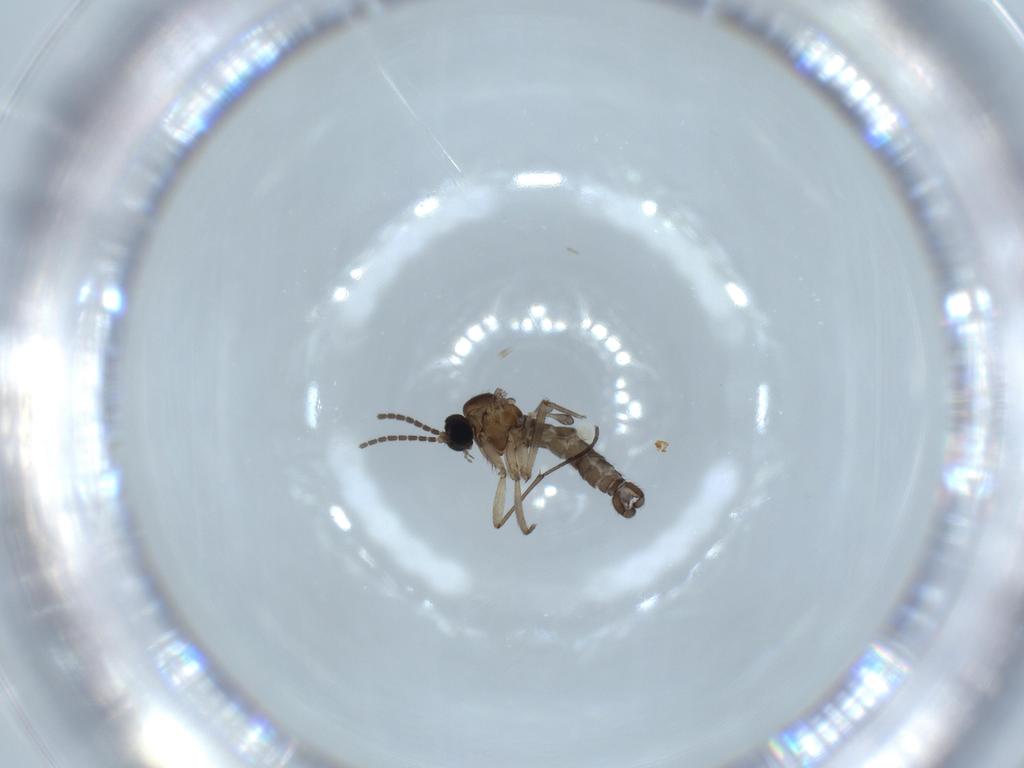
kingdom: Animalia
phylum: Arthropoda
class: Insecta
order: Diptera
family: Sciaridae
